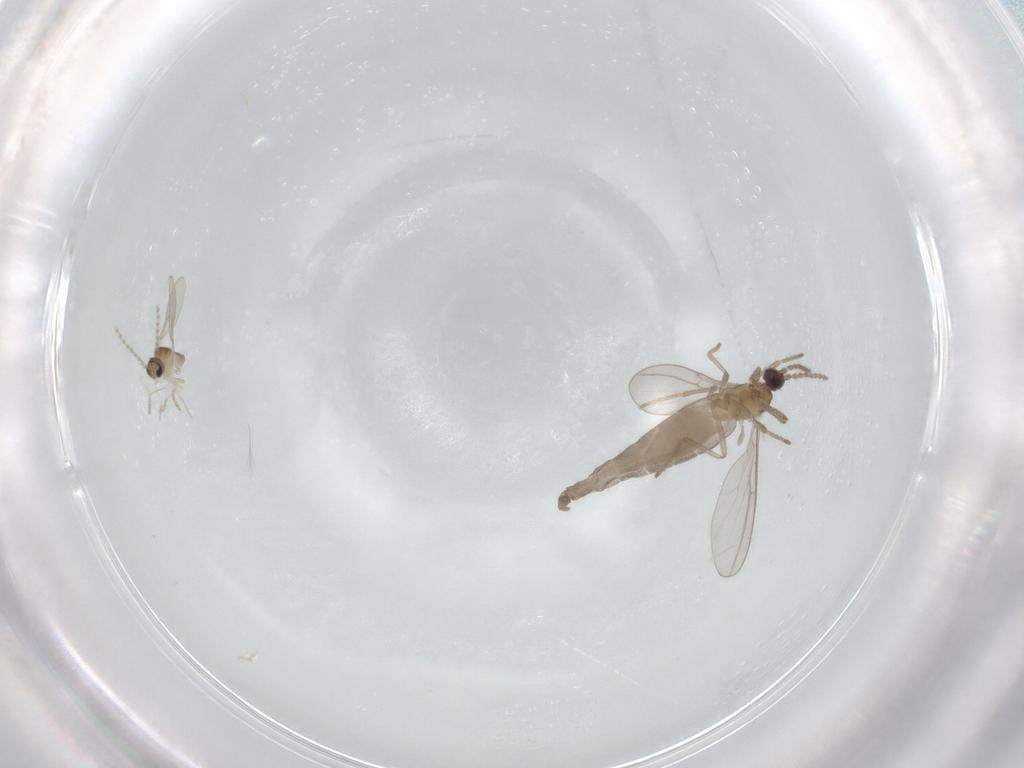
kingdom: Animalia
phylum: Arthropoda
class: Insecta
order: Diptera
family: Cecidomyiidae
